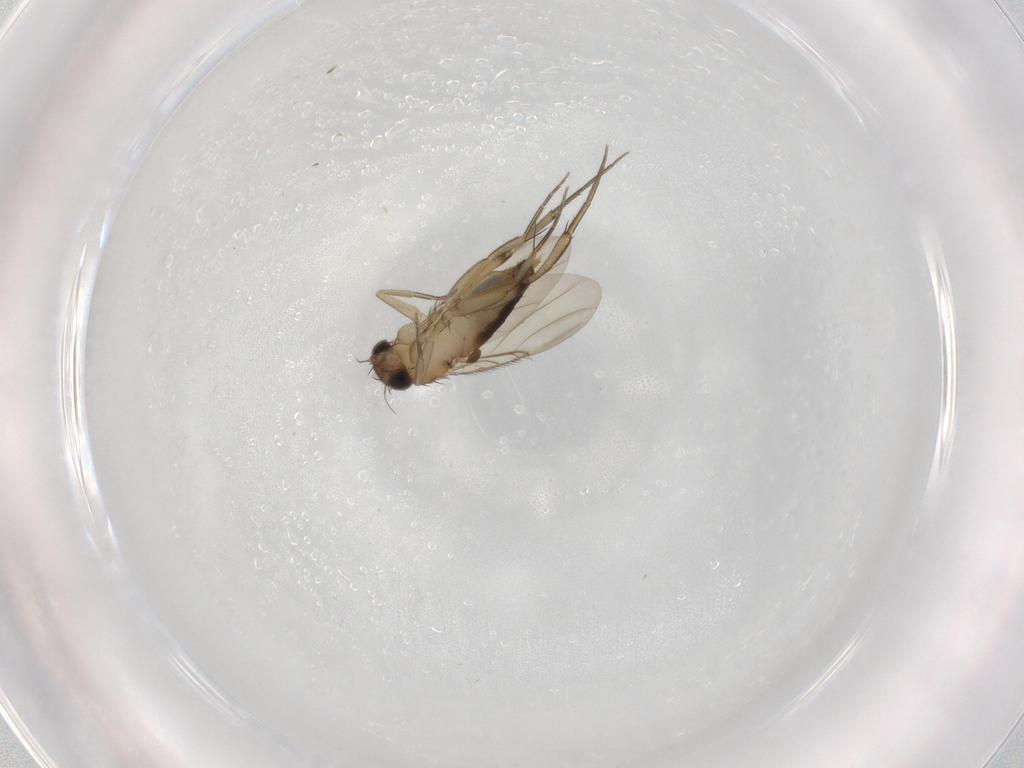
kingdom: Animalia
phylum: Arthropoda
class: Insecta
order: Diptera
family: Phoridae
